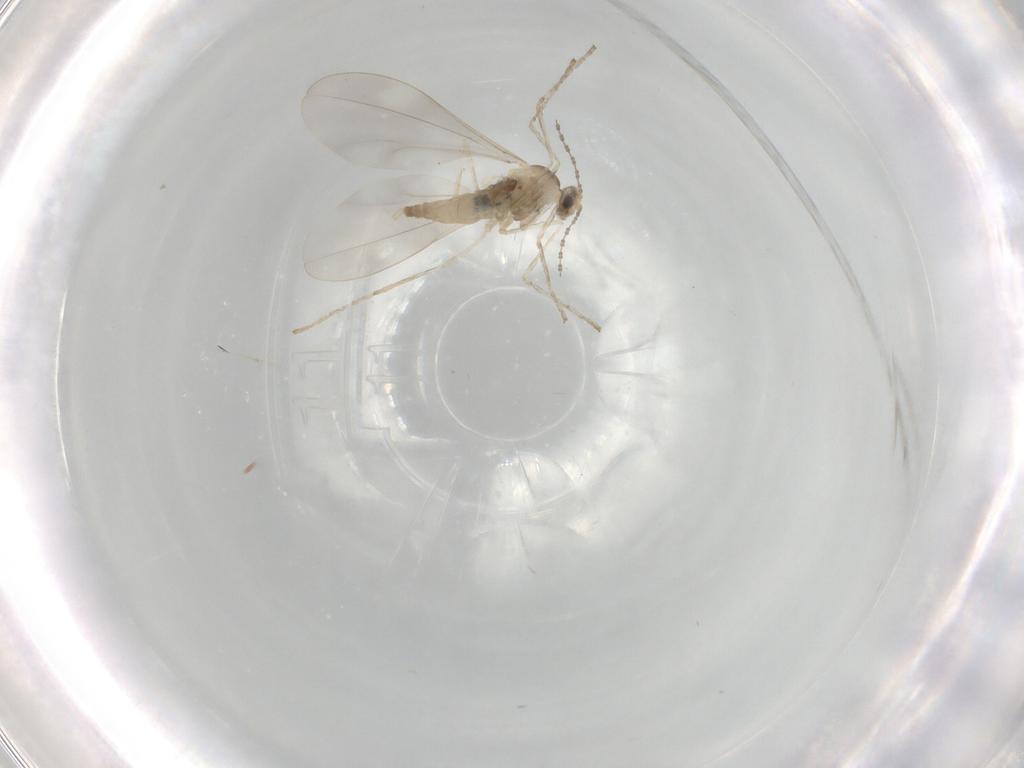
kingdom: Animalia
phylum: Arthropoda
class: Insecta
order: Diptera
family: Cecidomyiidae
